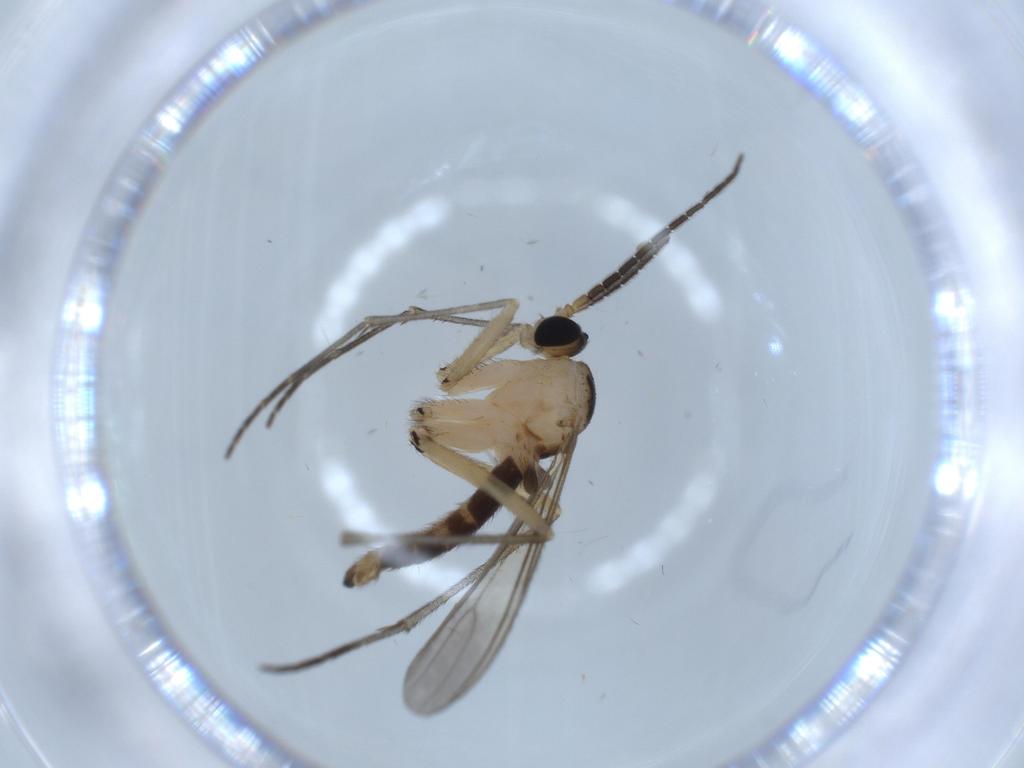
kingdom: Animalia
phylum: Arthropoda
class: Insecta
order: Diptera
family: Sciaridae
